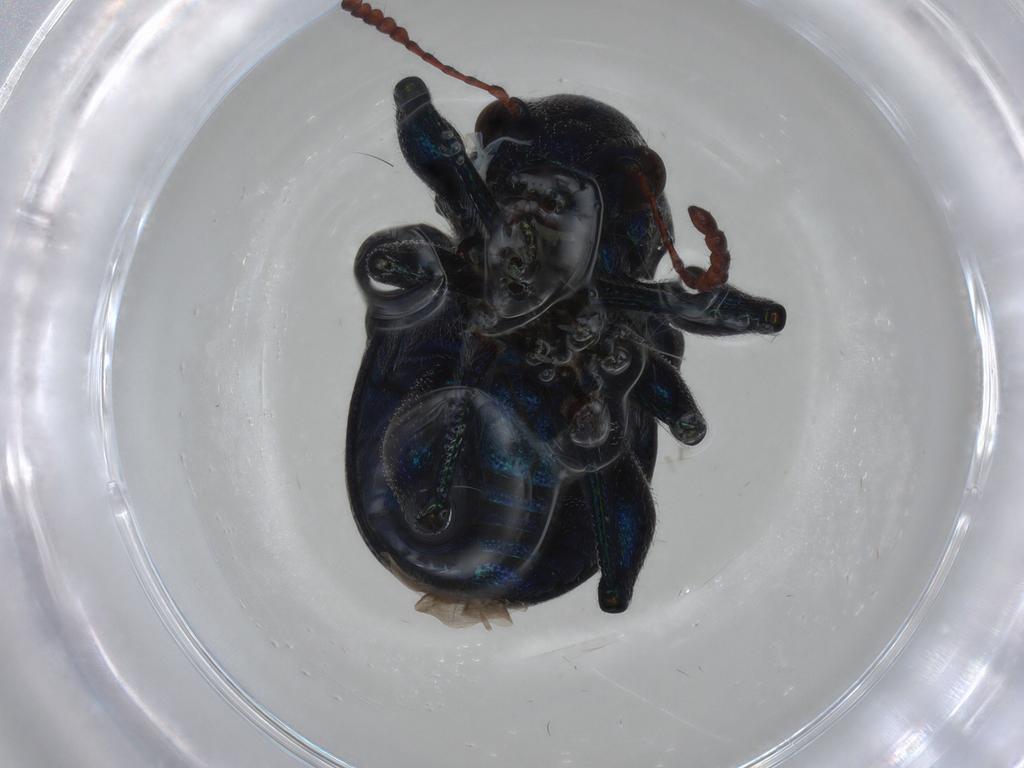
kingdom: Animalia
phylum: Arthropoda
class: Insecta
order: Coleoptera
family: Chrysomelidae
